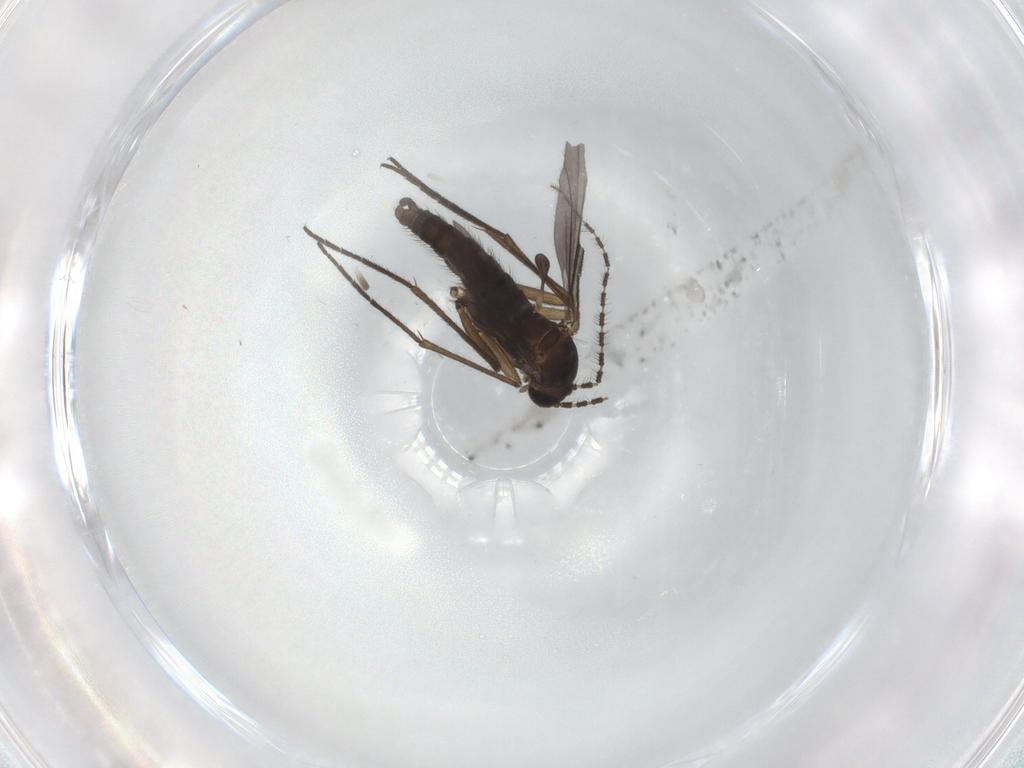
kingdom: Animalia
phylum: Arthropoda
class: Insecta
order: Diptera
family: Sciaridae
